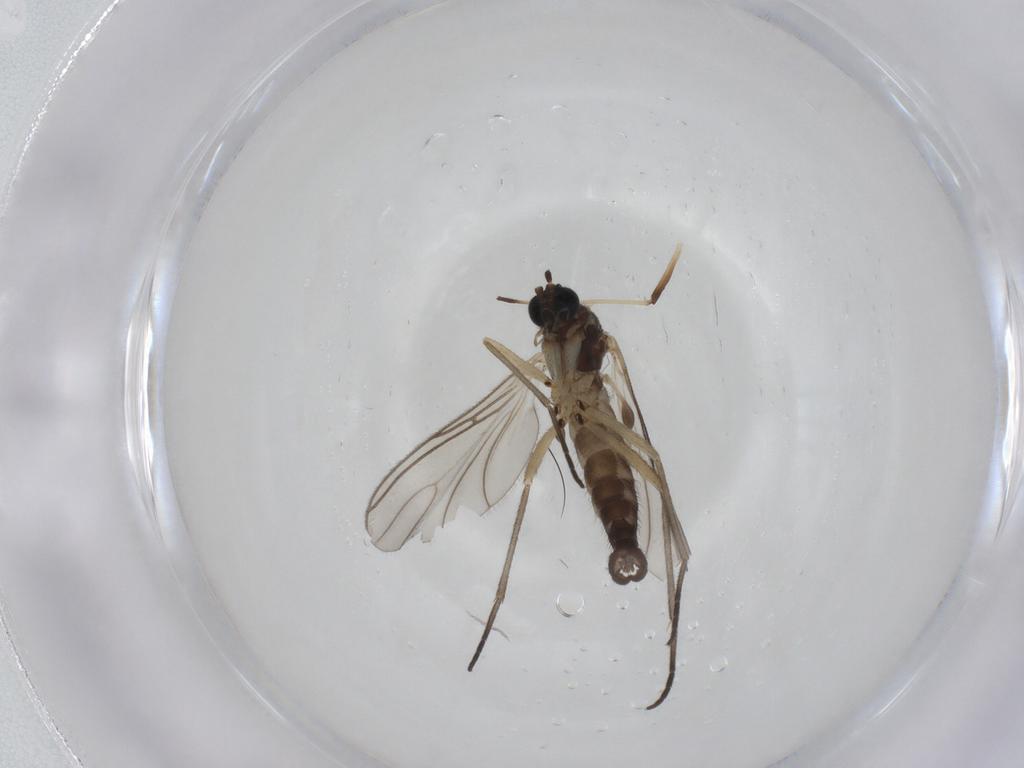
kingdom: Animalia
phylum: Arthropoda
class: Insecta
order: Diptera
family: Sciaridae
